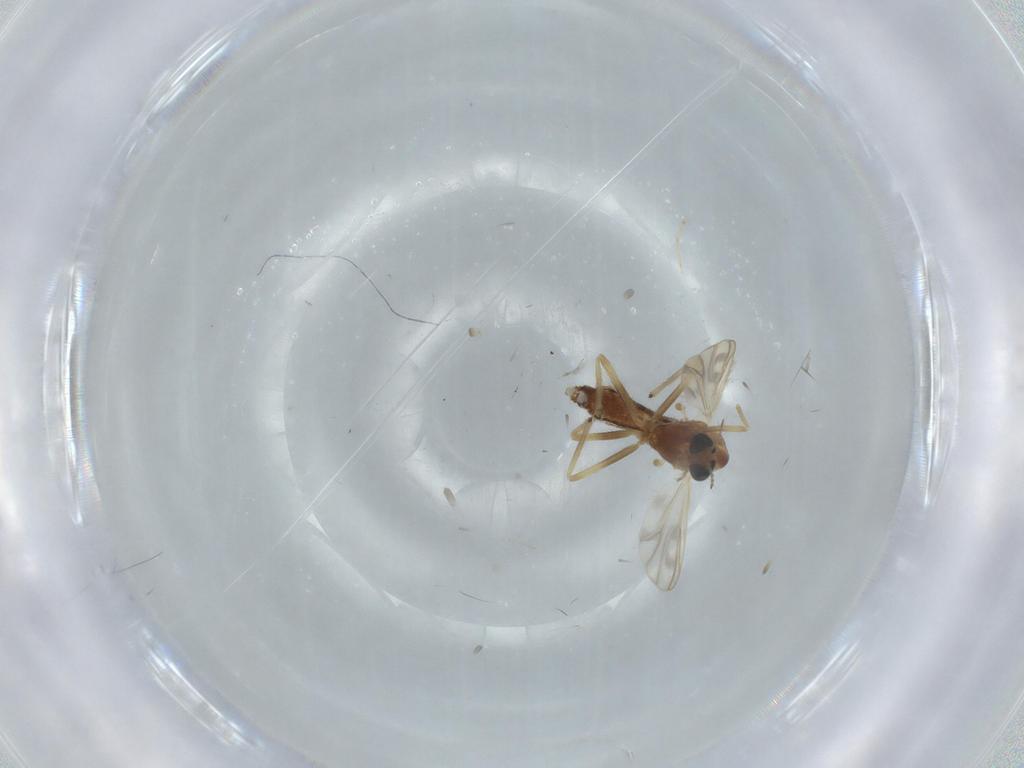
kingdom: Animalia
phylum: Arthropoda
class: Insecta
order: Diptera
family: Chironomidae
